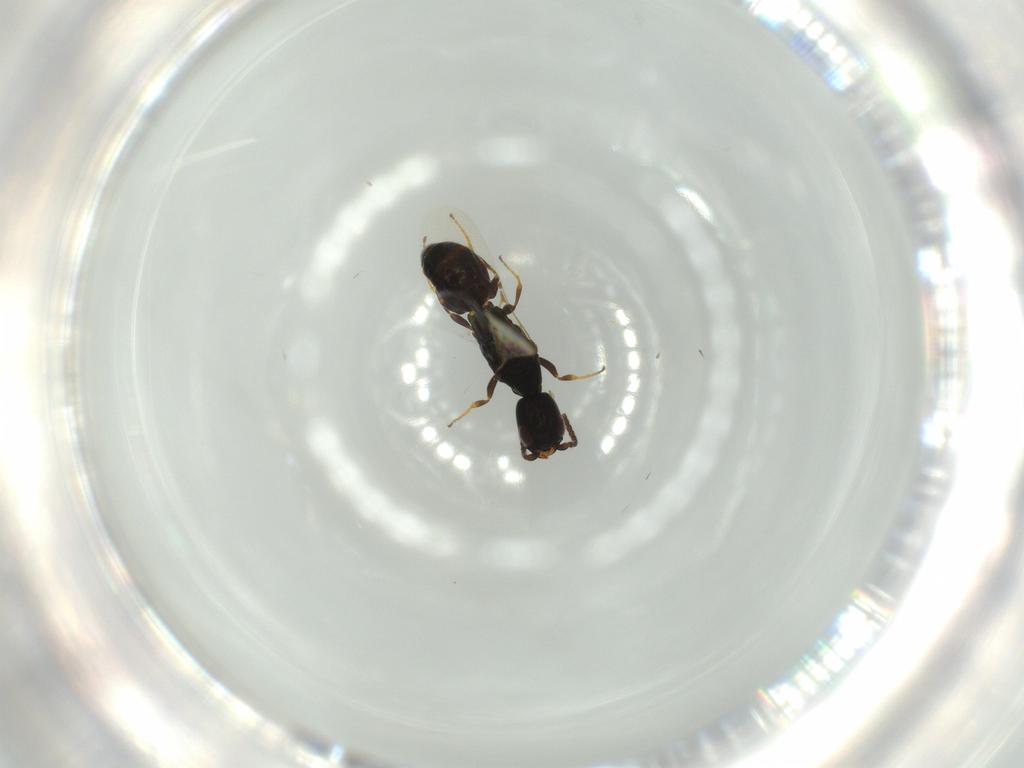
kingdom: Animalia
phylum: Arthropoda
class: Insecta
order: Hymenoptera
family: Bethylidae
